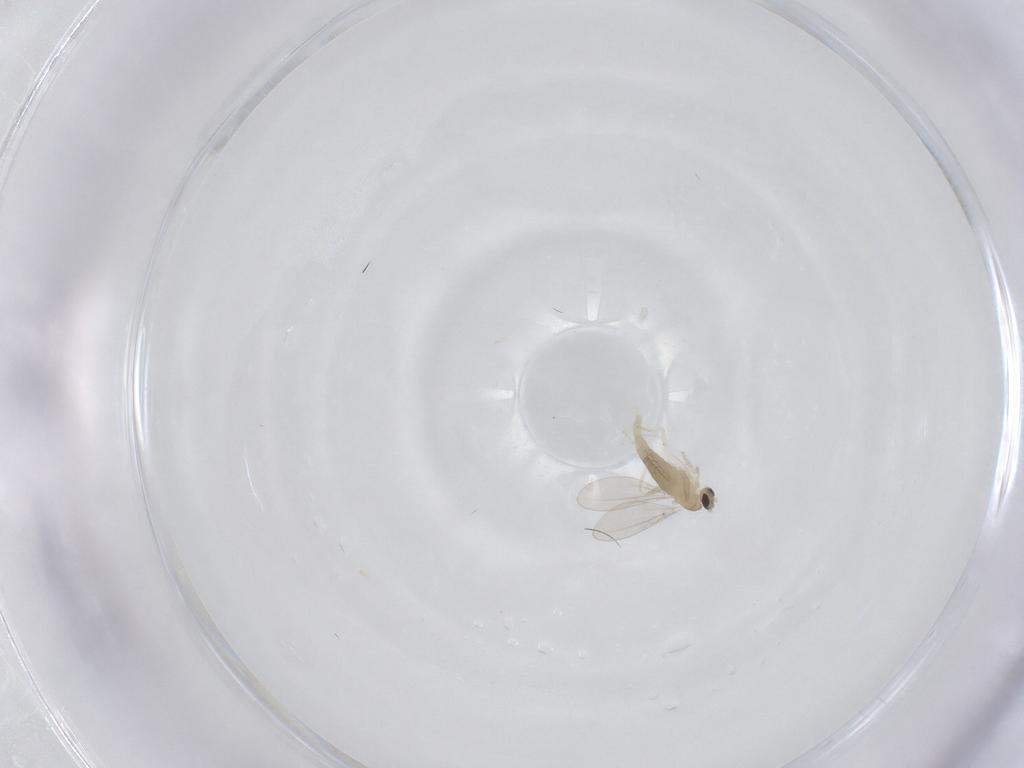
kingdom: Animalia
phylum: Arthropoda
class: Insecta
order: Diptera
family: Cecidomyiidae
